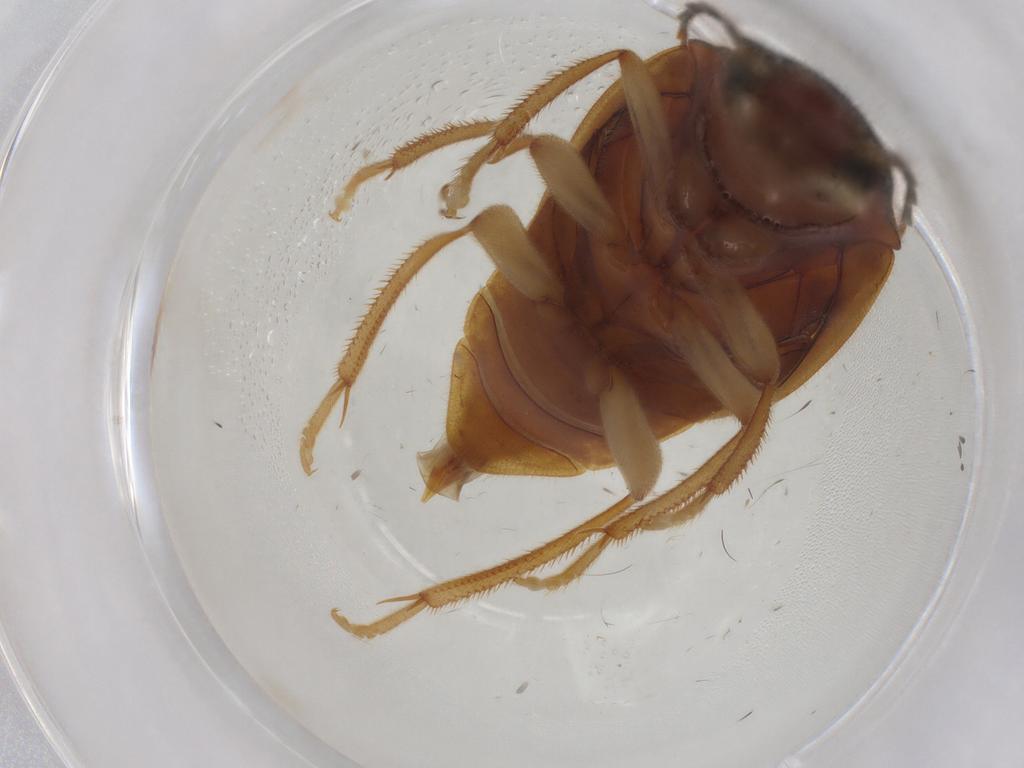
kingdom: Animalia
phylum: Arthropoda
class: Insecta
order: Coleoptera
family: Ptilodactylidae
